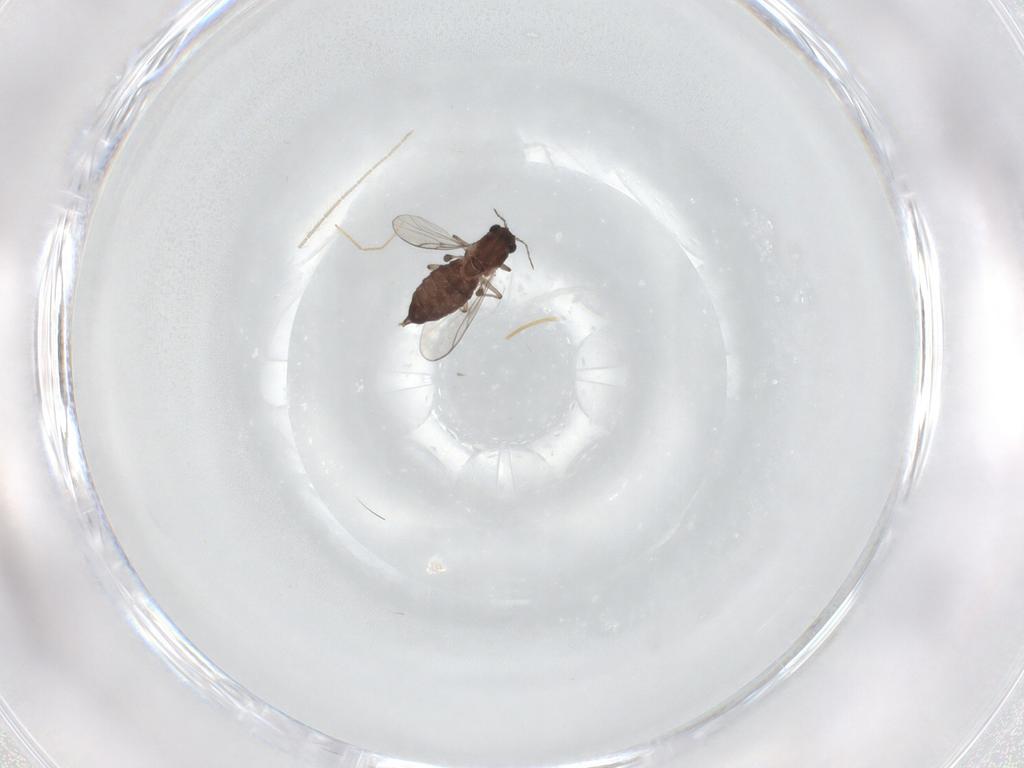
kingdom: Animalia
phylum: Arthropoda
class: Insecta
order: Diptera
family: Chironomidae
